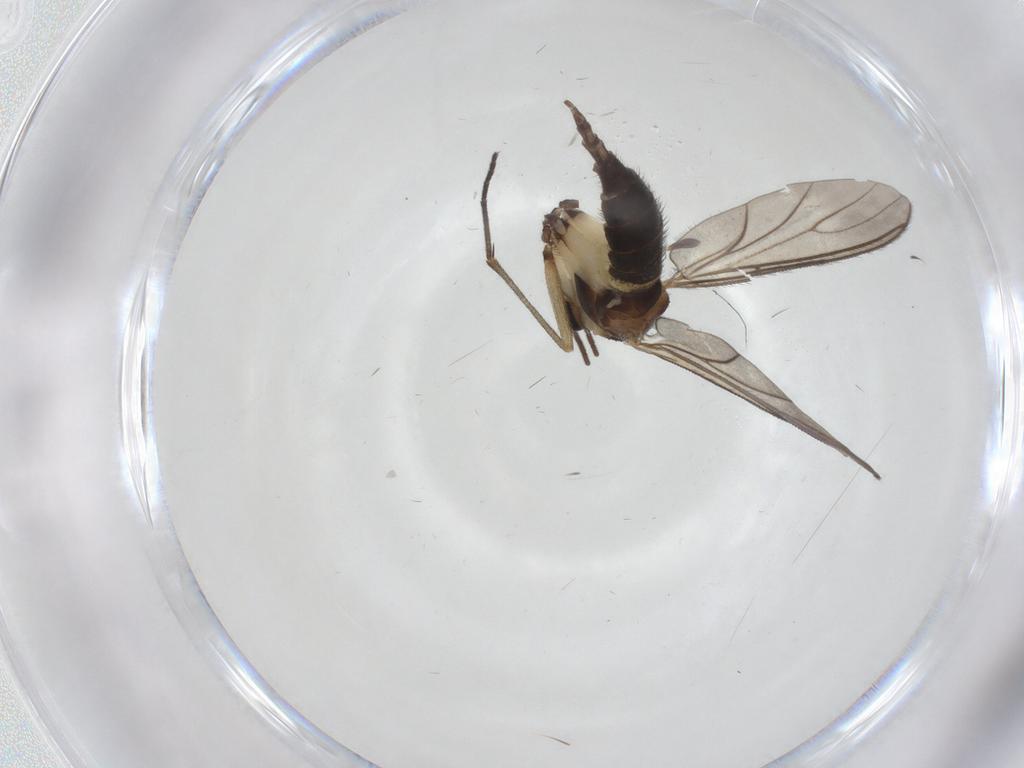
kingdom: Animalia
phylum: Arthropoda
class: Insecta
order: Diptera
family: Sciaridae
